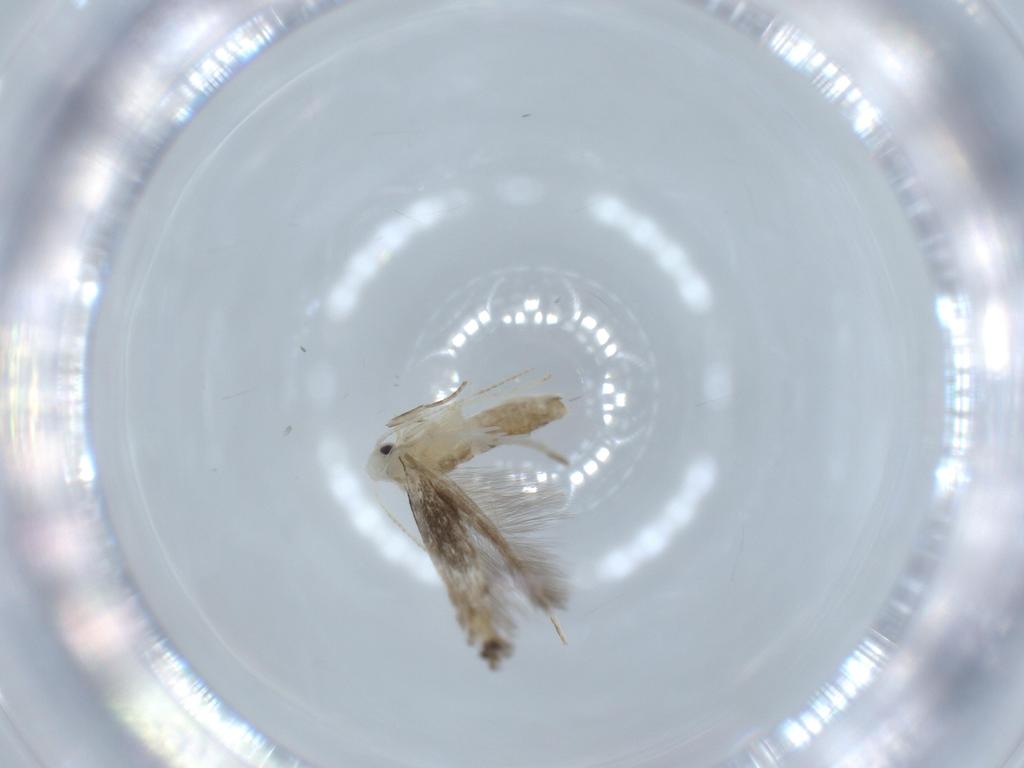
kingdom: Animalia
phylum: Arthropoda
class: Insecta
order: Lepidoptera
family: Nepticulidae
